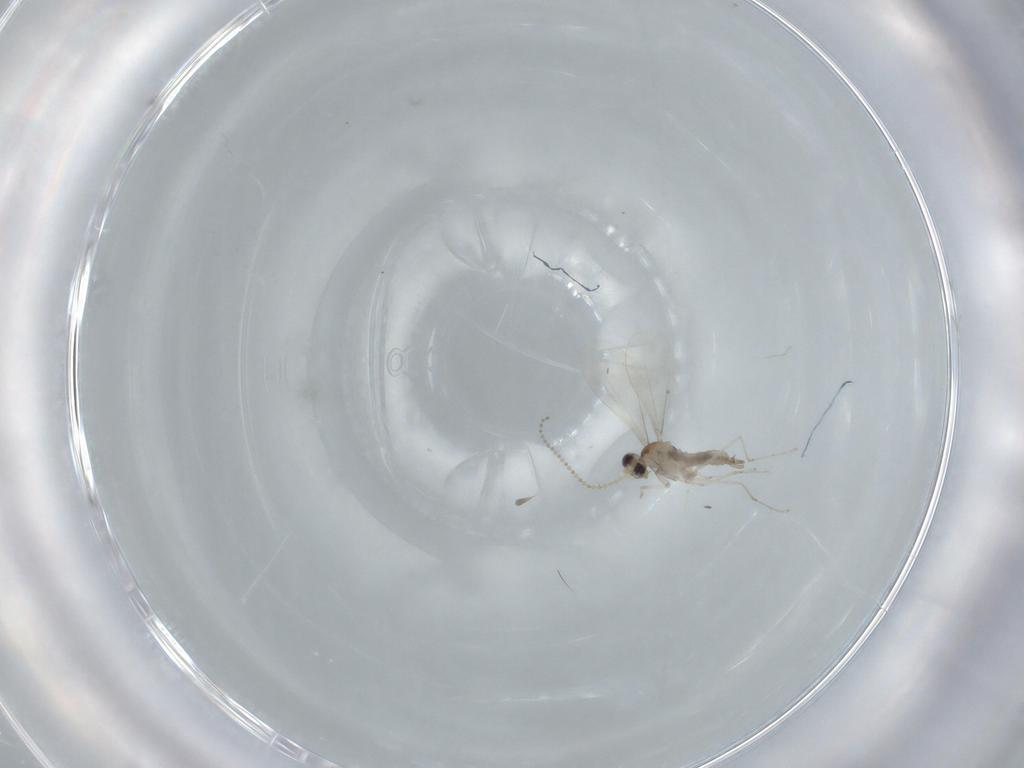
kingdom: Animalia
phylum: Arthropoda
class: Insecta
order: Diptera
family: Cecidomyiidae
